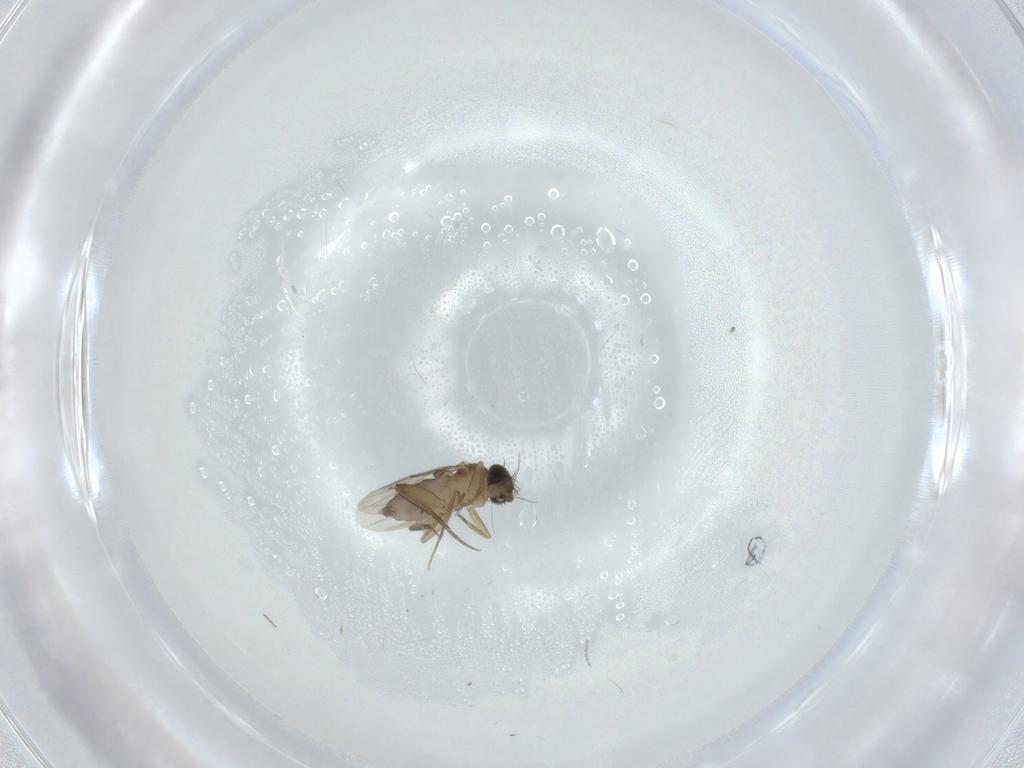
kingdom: Animalia
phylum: Arthropoda
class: Insecta
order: Diptera
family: Phoridae
